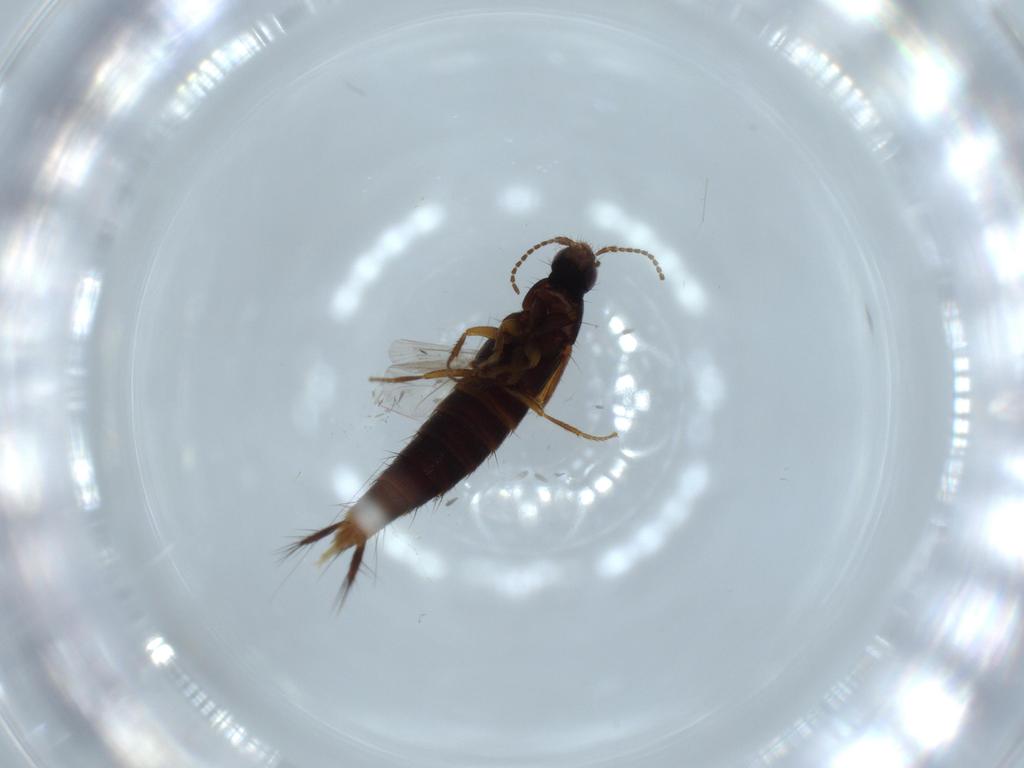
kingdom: Animalia
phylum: Arthropoda
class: Insecta
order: Coleoptera
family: Staphylinidae
